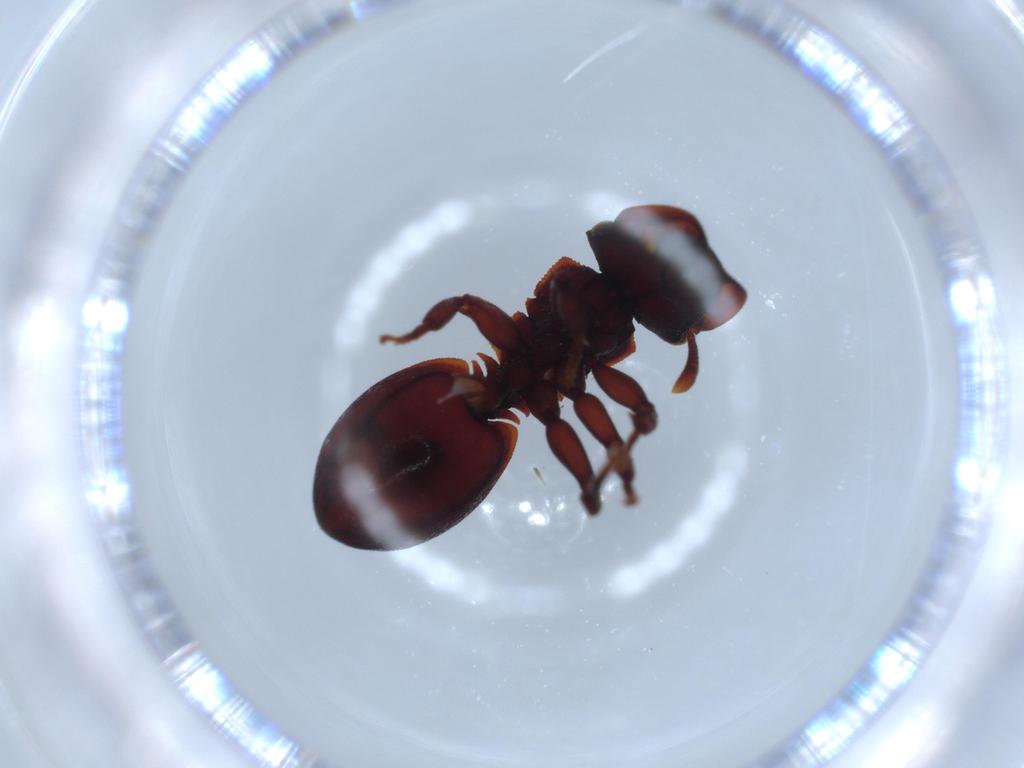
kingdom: Animalia
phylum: Arthropoda
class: Insecta
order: Hymenoptera
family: Formicidae
